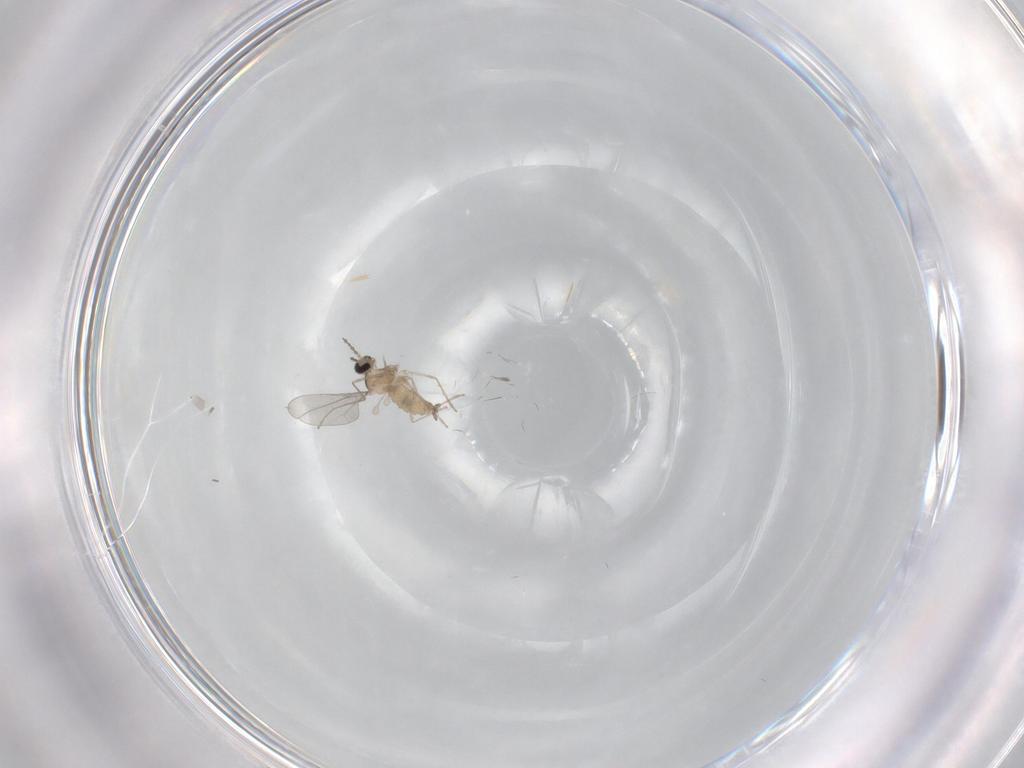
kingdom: Animalia
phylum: Arthropoda
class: Insecta
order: Diptera
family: Cecidomyiidae
